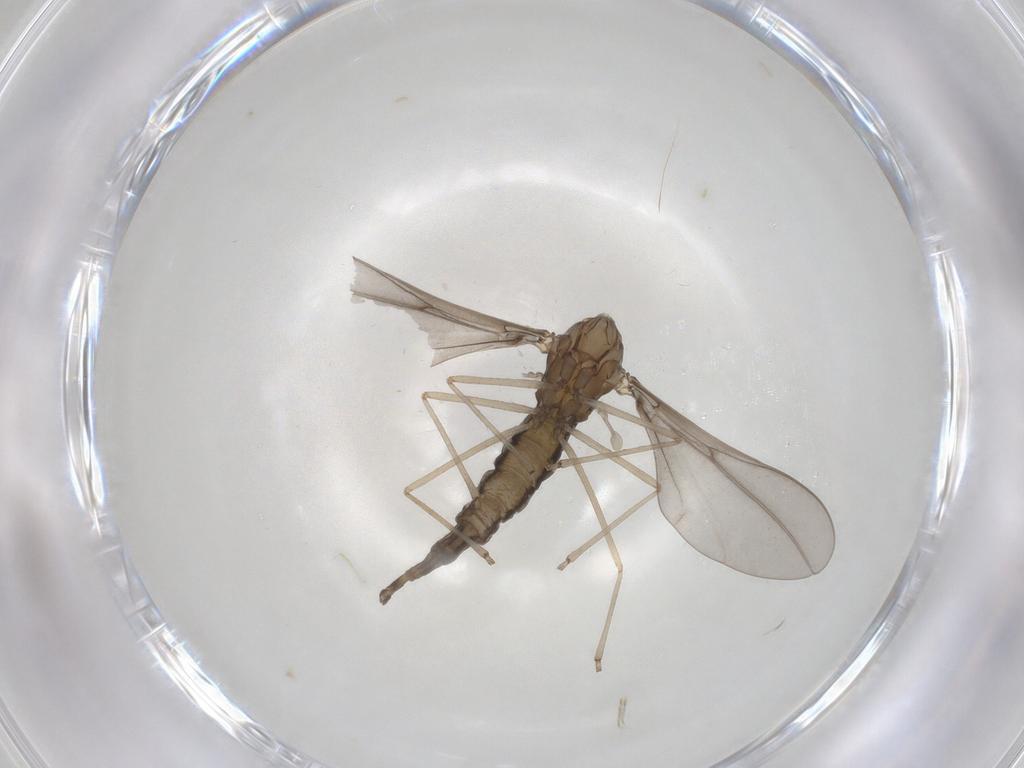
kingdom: Animalia
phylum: Arthropoda
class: Insecta
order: Diptera
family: Cecidomyiidae
